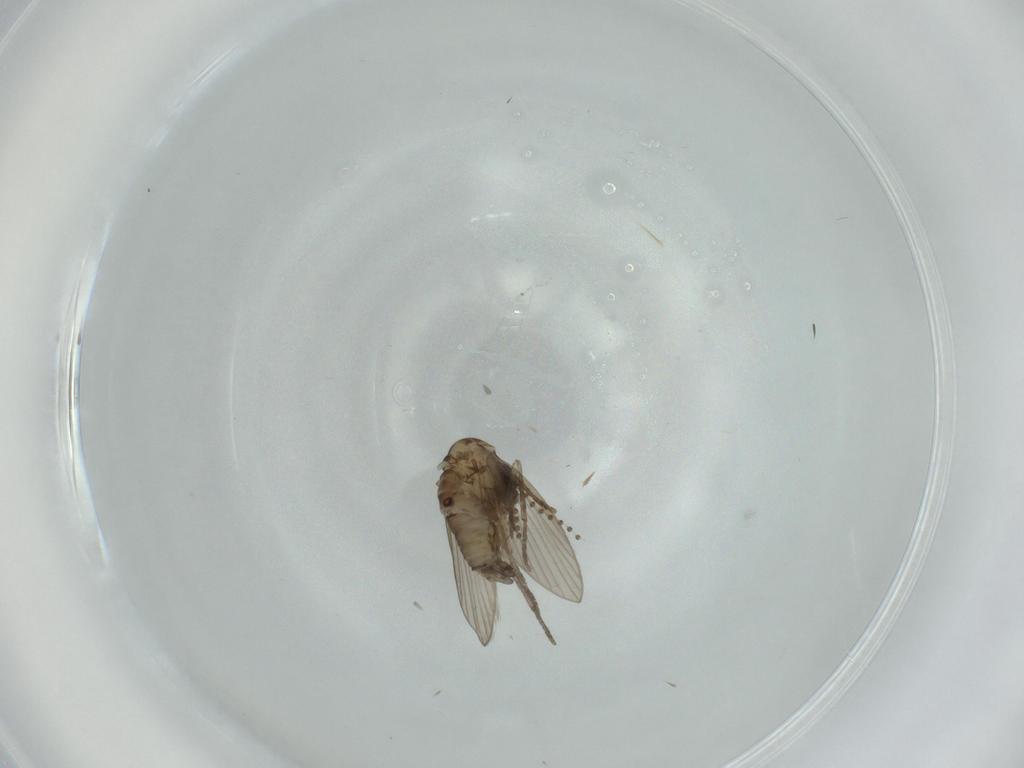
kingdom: Animalia
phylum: Arthropoda
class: Insecta
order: Diptera
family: Psychodidae
